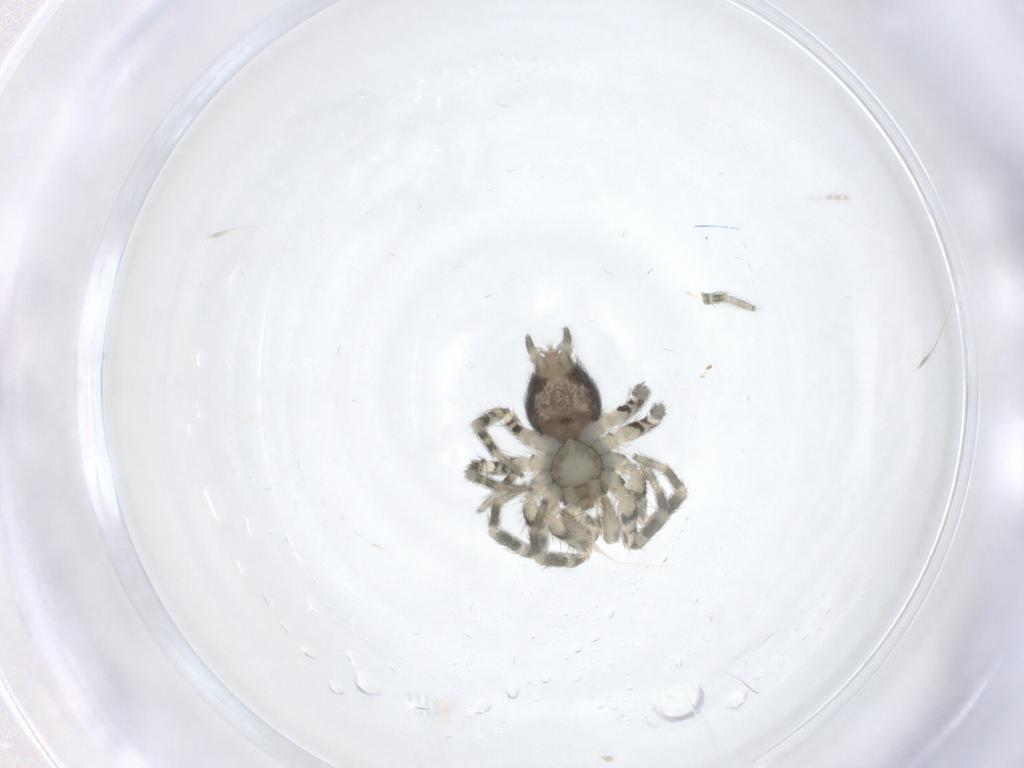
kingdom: Animalia
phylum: Arthropoda
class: Arachnida
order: Araneae
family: Oecobiidae
